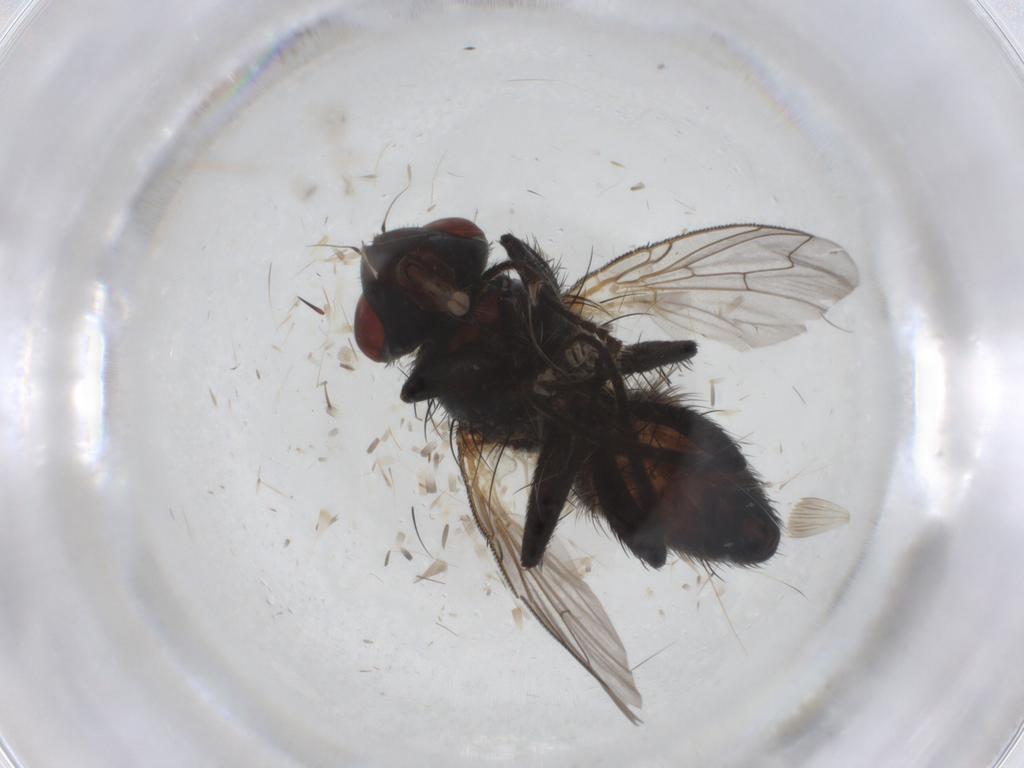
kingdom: Animalia
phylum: Arthropoda
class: Insecta
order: Diptera
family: Sarcophagidae
